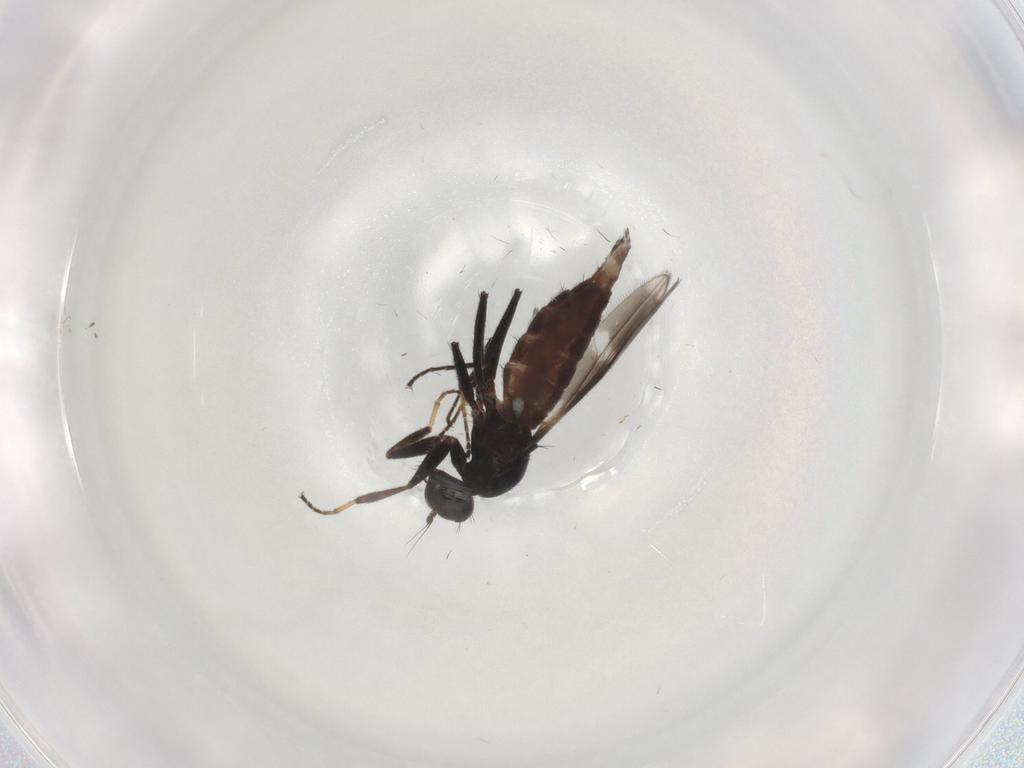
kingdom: Animalia
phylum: Arthropoda
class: Insecta
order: Diptera
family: Hybotidae
